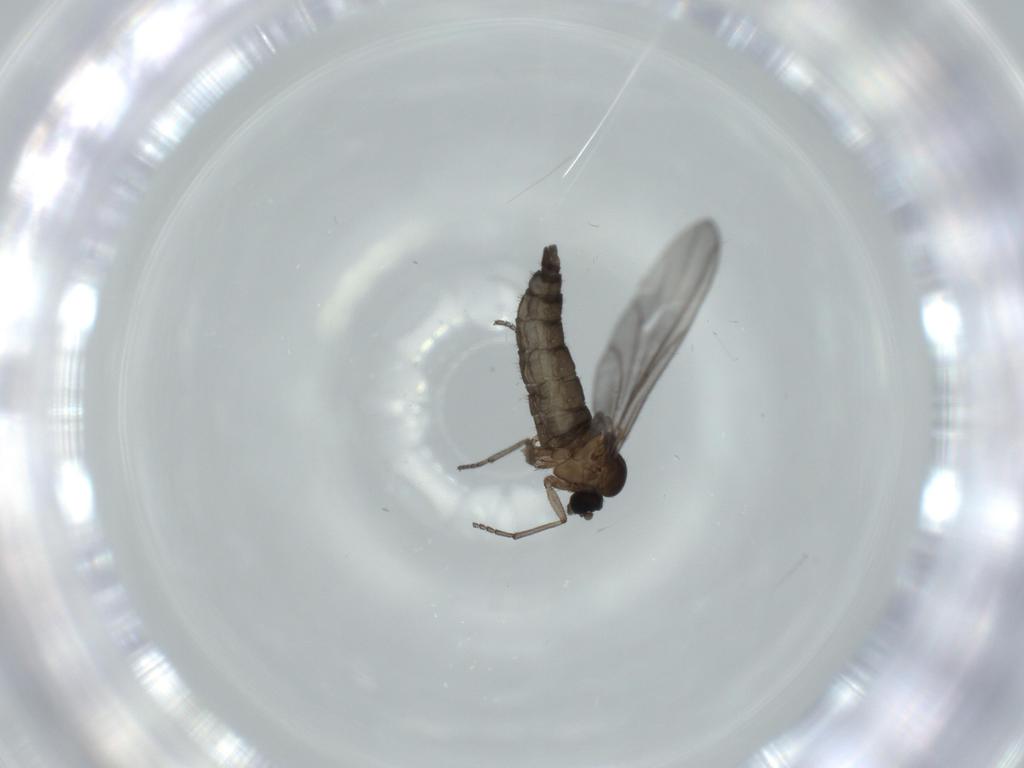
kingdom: Animalia
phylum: Arthropoda
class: Insecta
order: Diptera
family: Sciaridae
